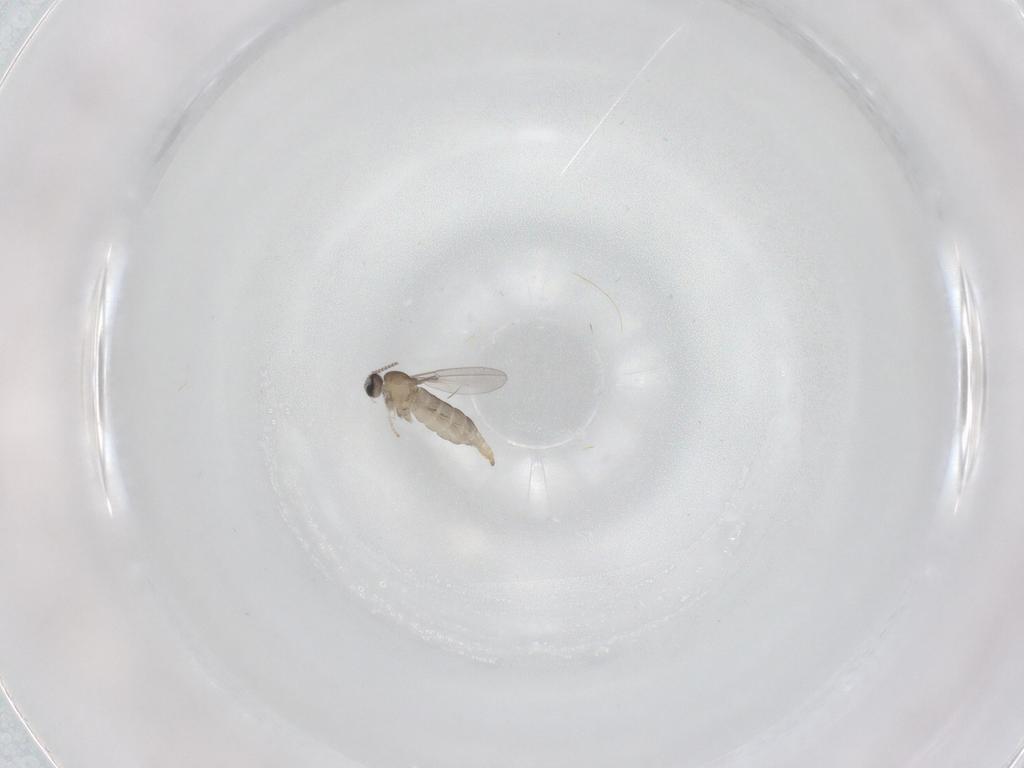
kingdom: Animalia
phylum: Arthropoda
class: Insecta
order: Diptera
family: Cecidomyiidae
